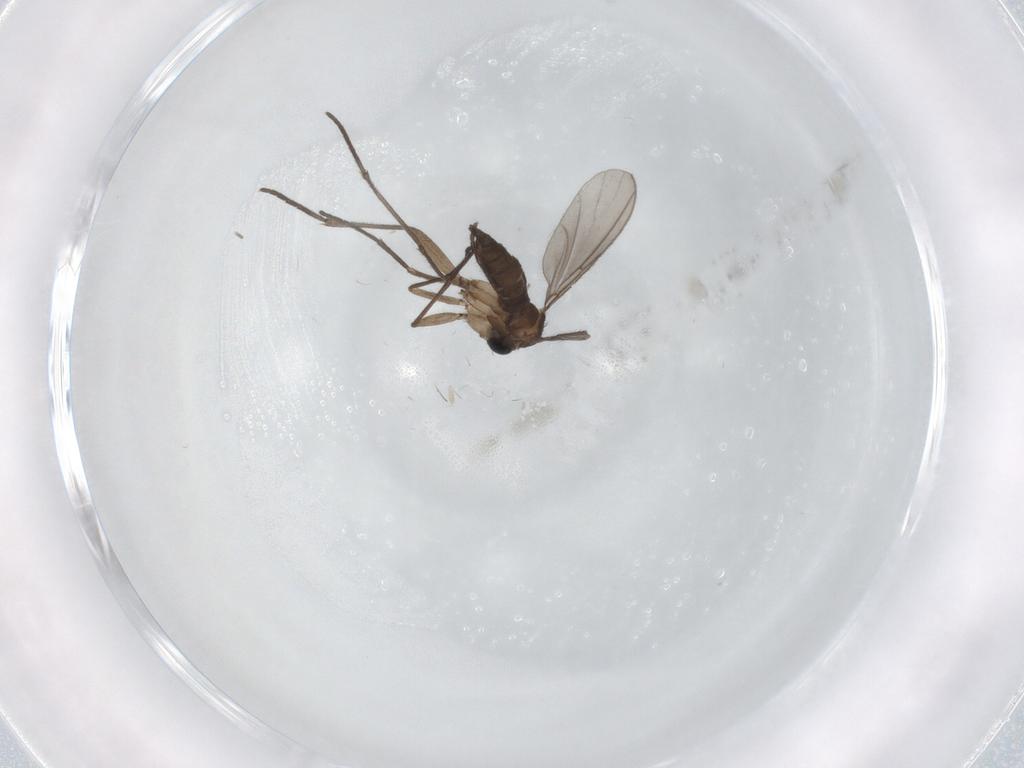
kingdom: Animalia
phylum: Arthropoda
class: Insecta
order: Diptera
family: Sciaridae
